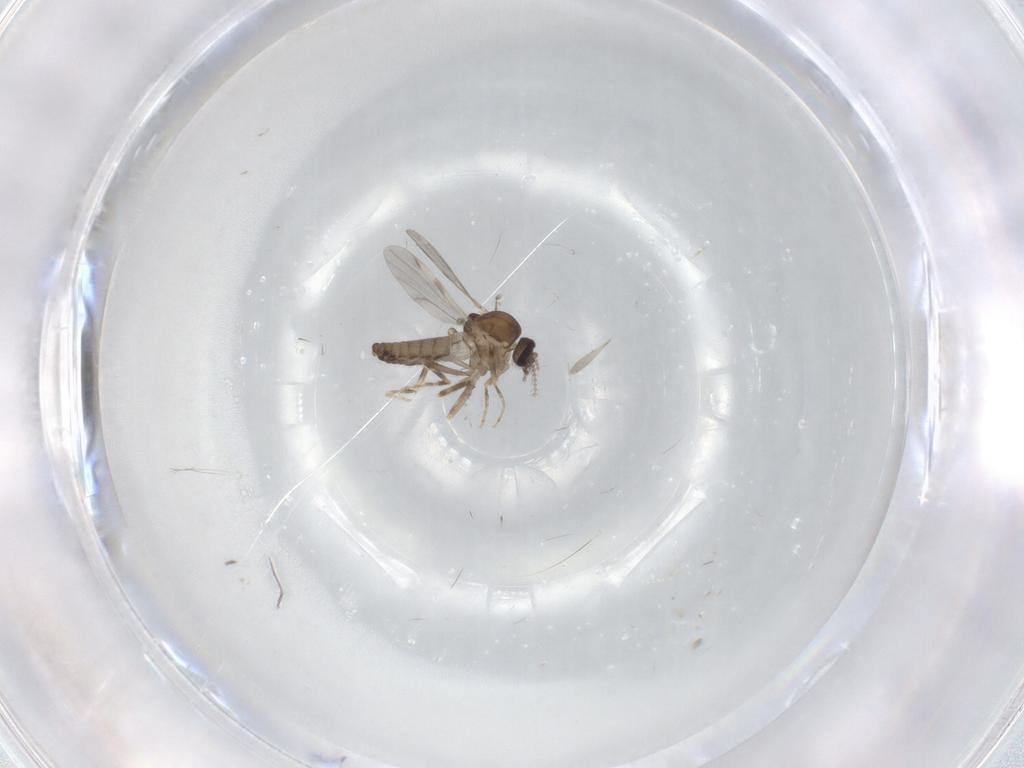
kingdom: Animalia
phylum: Arthropoda
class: Insecta
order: Diptera
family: Ceratopogonidae
